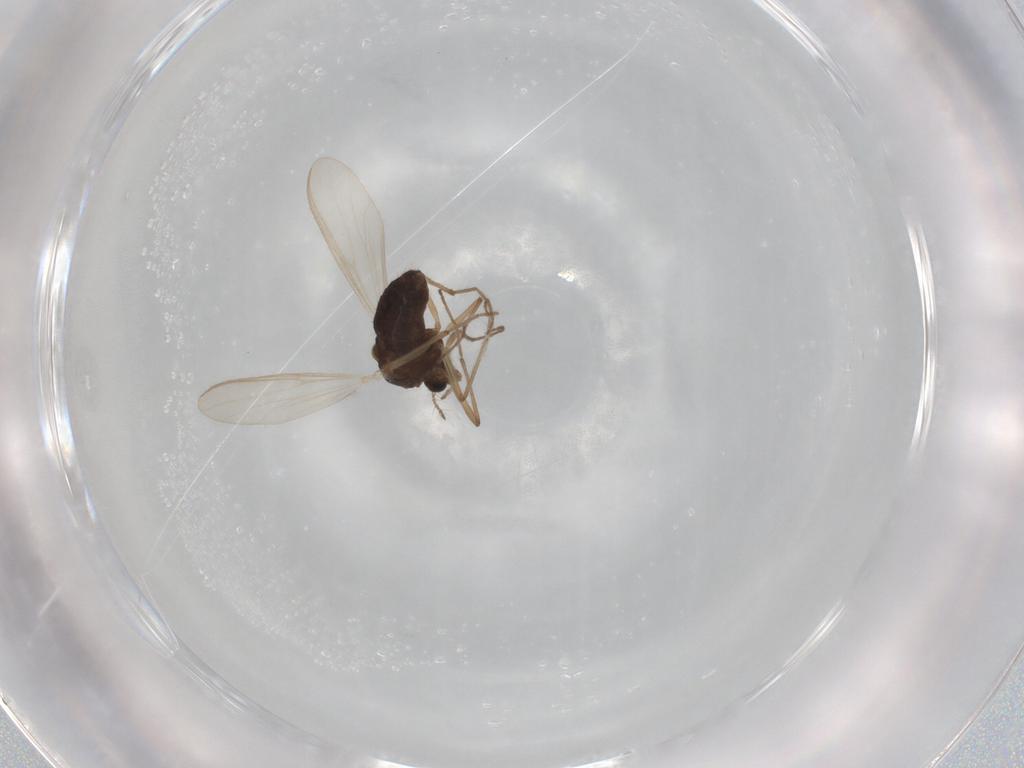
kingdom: Animalia
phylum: Arthropoda
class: Insecta
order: Diptera
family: Chironomidae
